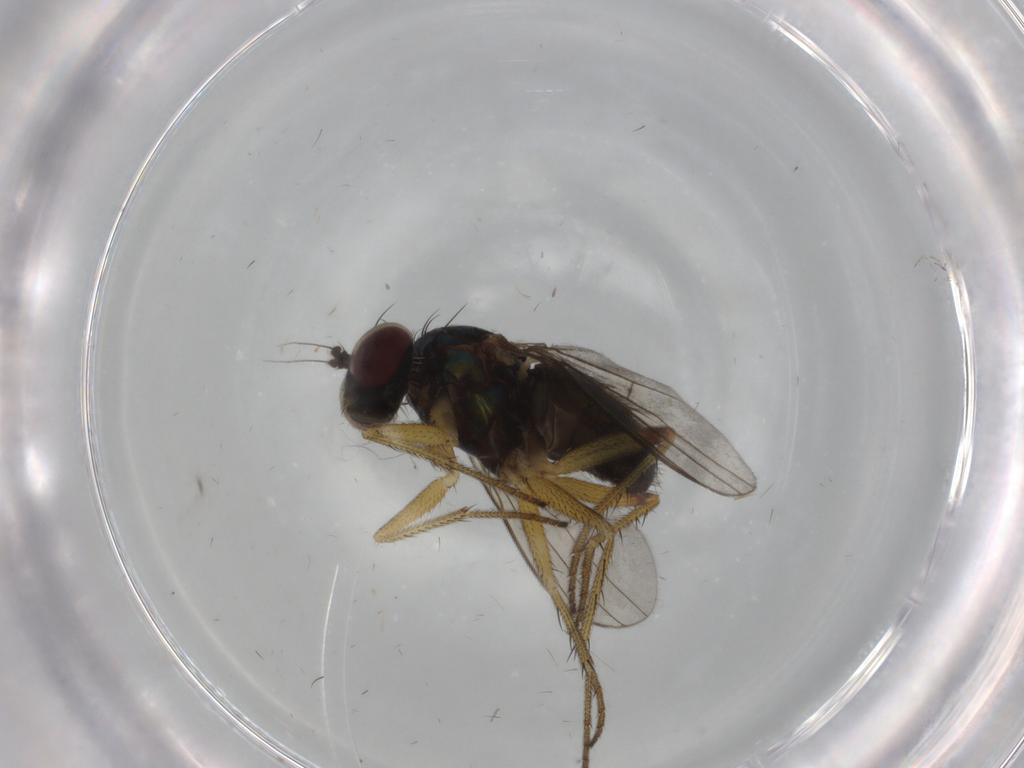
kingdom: Animalia
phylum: Arthropoda
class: Insecta
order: Diptera
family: Dolichopodidae
